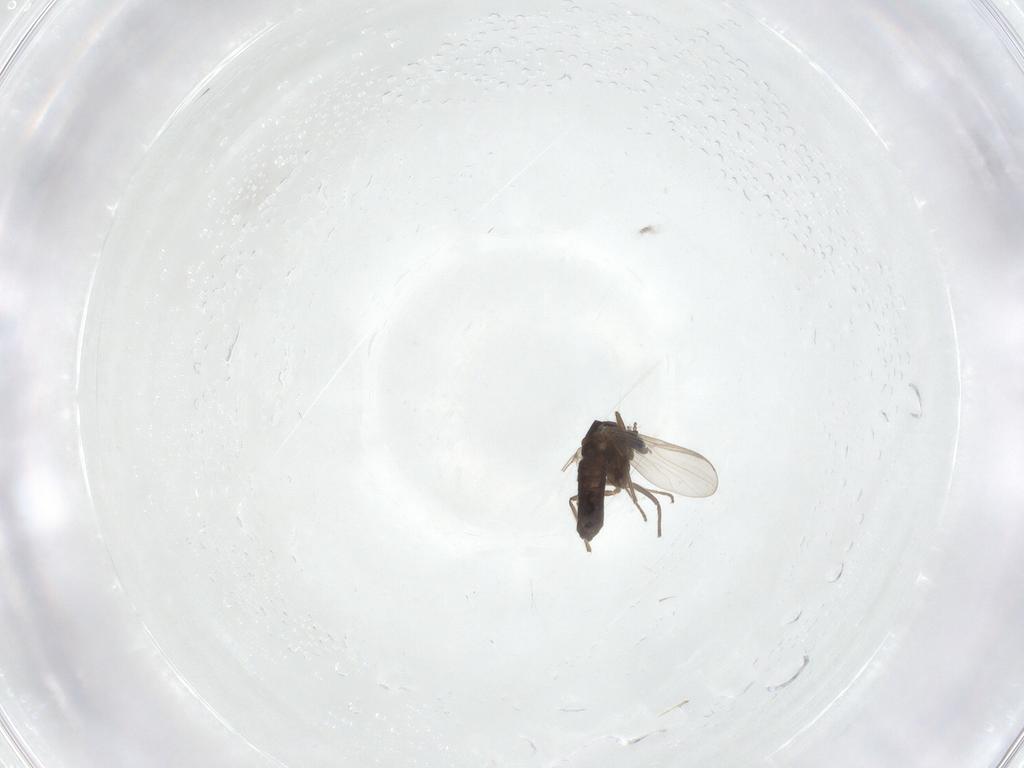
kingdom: Animalia
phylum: Arthropoda
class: Insecta
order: Diptera
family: Chironomidae
